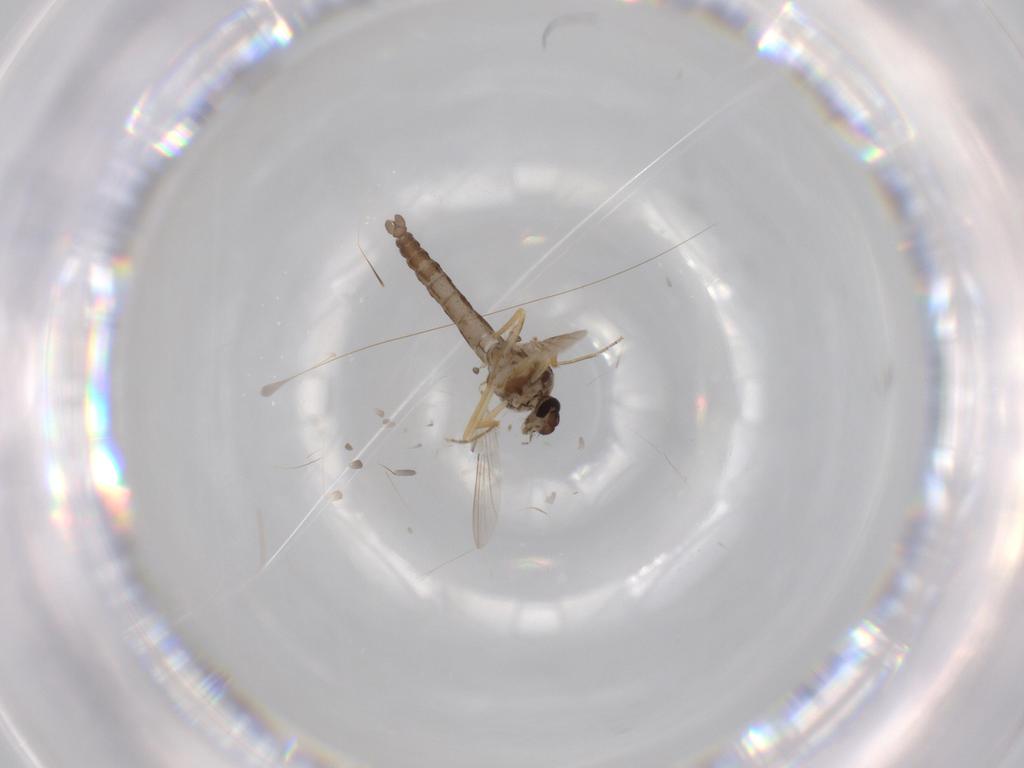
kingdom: Animalia
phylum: Arthropoda
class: Insecta
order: Diptera
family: Ceratopogonidae
